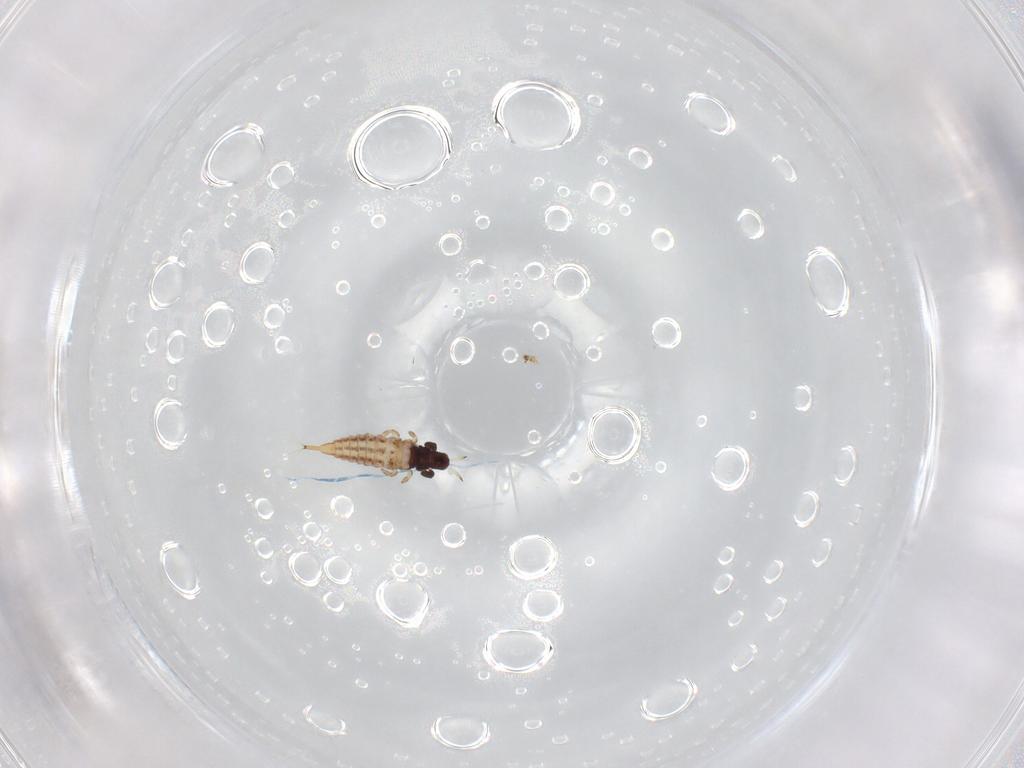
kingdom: Animalia
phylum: Arthropoda
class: Insecta
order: Thysanoptera
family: Phlaeothripidae
